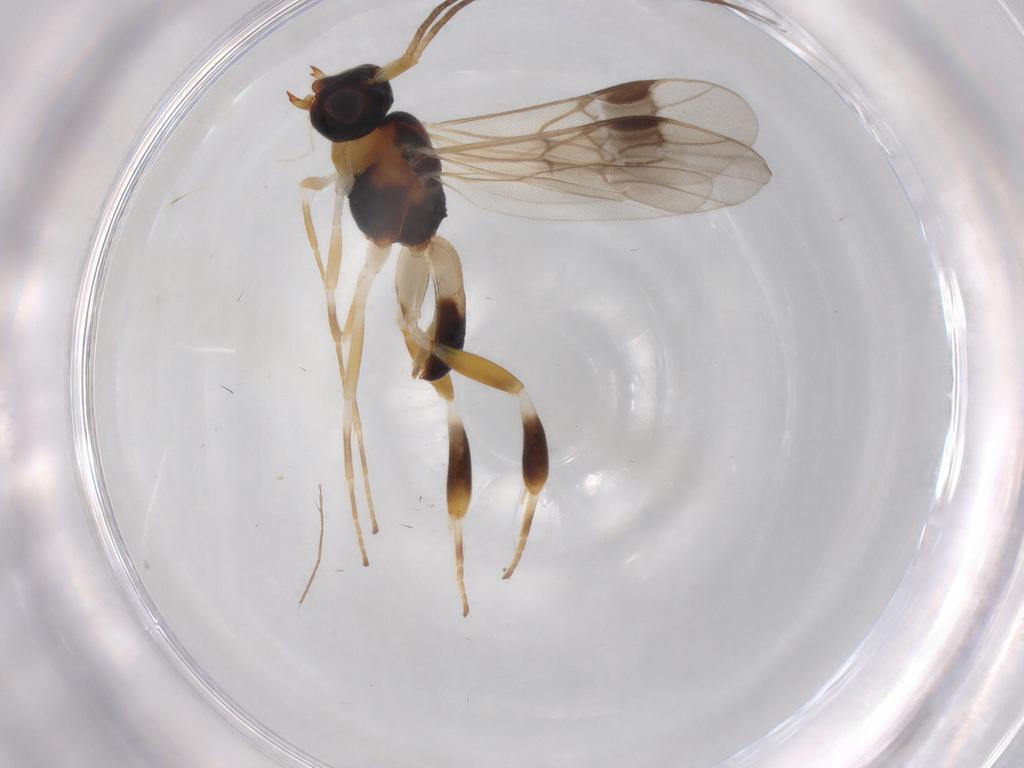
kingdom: Animalia
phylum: Arthropoda
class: Insecta
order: Hymenoptera
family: Braconidae
